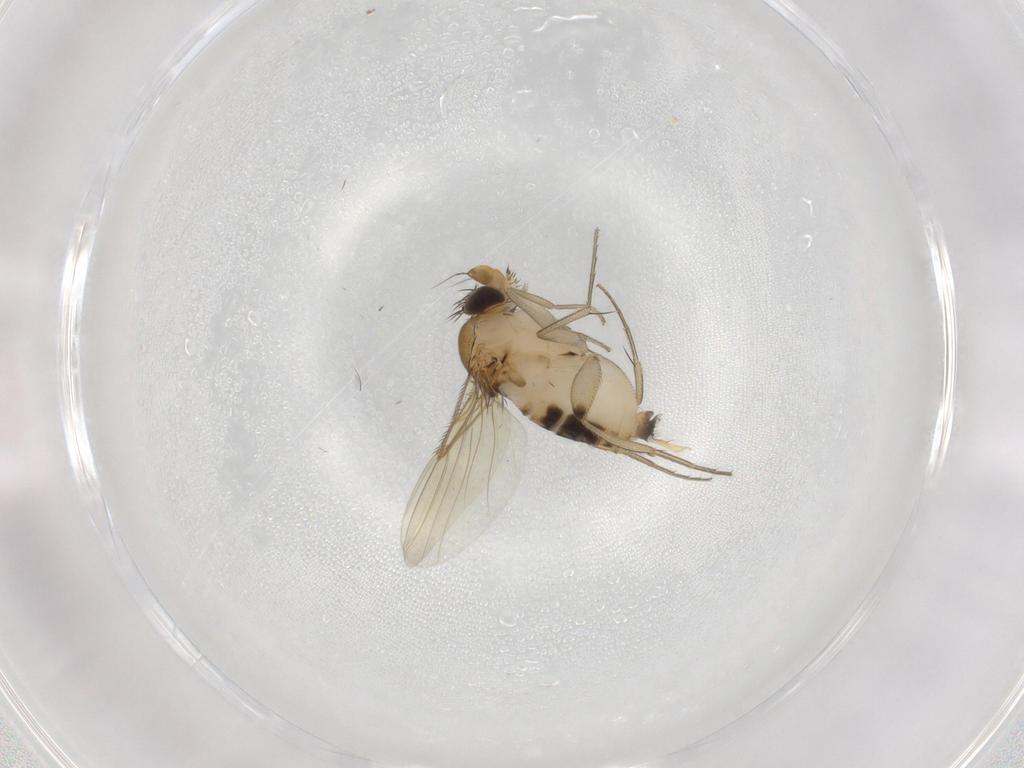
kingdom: Animalia
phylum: Arthropoda
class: Insecta
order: Diptera
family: Phoridae
